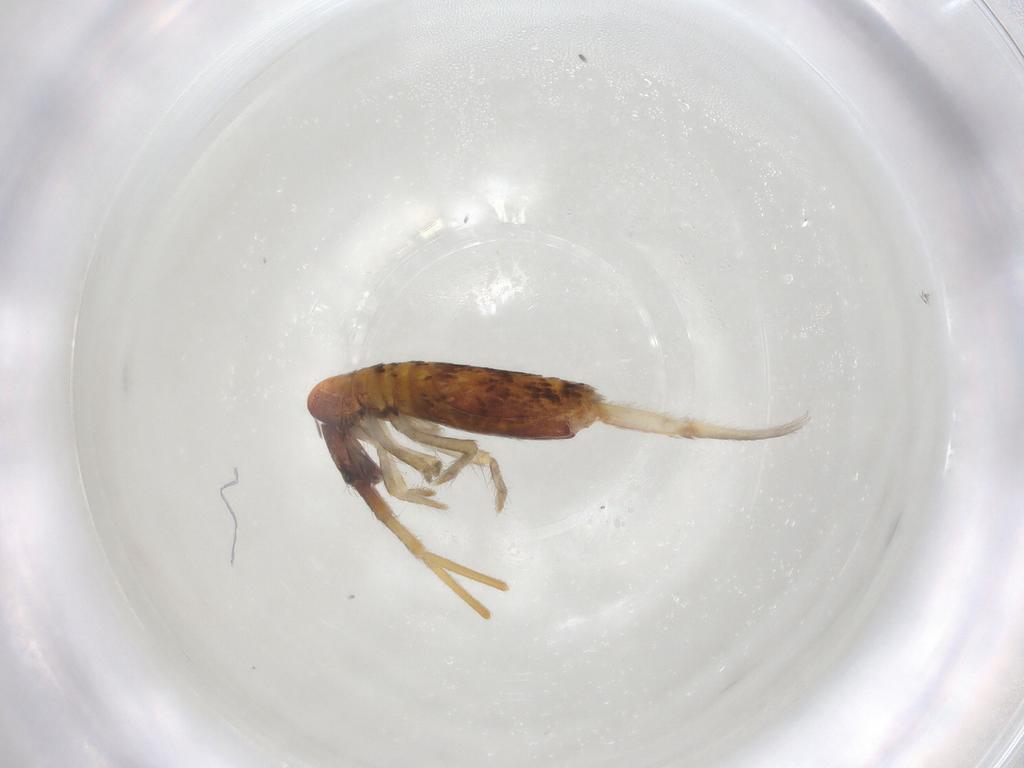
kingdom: Animalia
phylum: Arthropoda
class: Collembola
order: Entomobryomorpha
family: Entomobryidae
